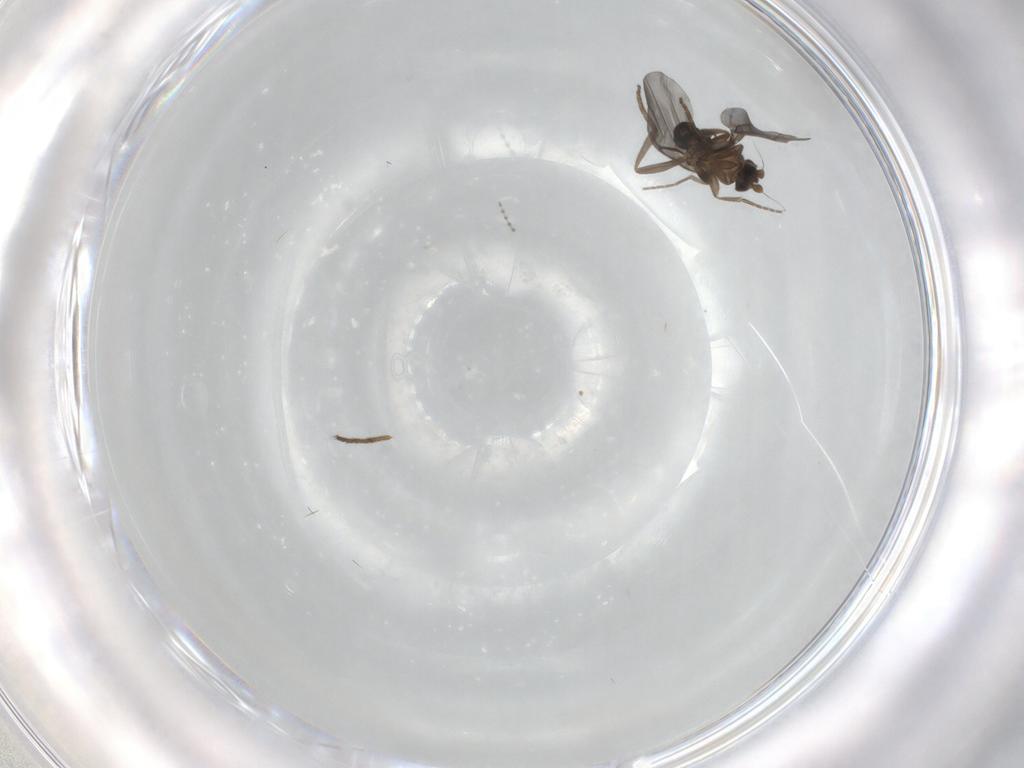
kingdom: Animalia
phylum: Arthropoda
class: Insecta
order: Diptera
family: Phoridae
